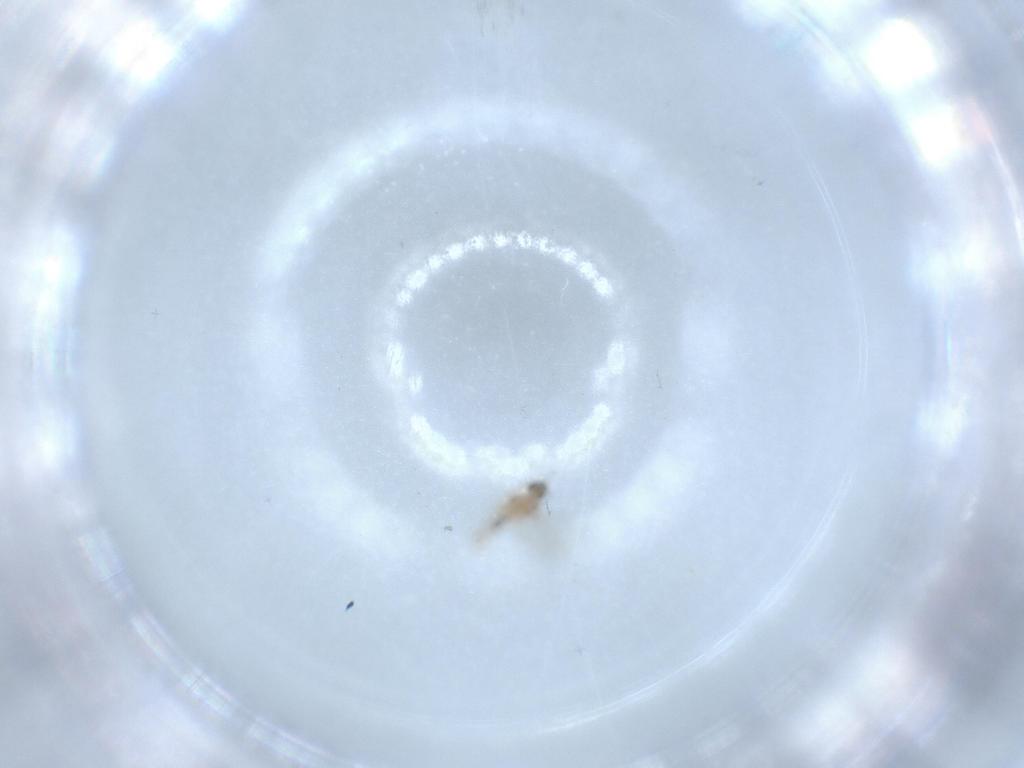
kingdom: Animalia
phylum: Arthropoda
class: Insecta
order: Diptera
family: Cecidomyiidae
